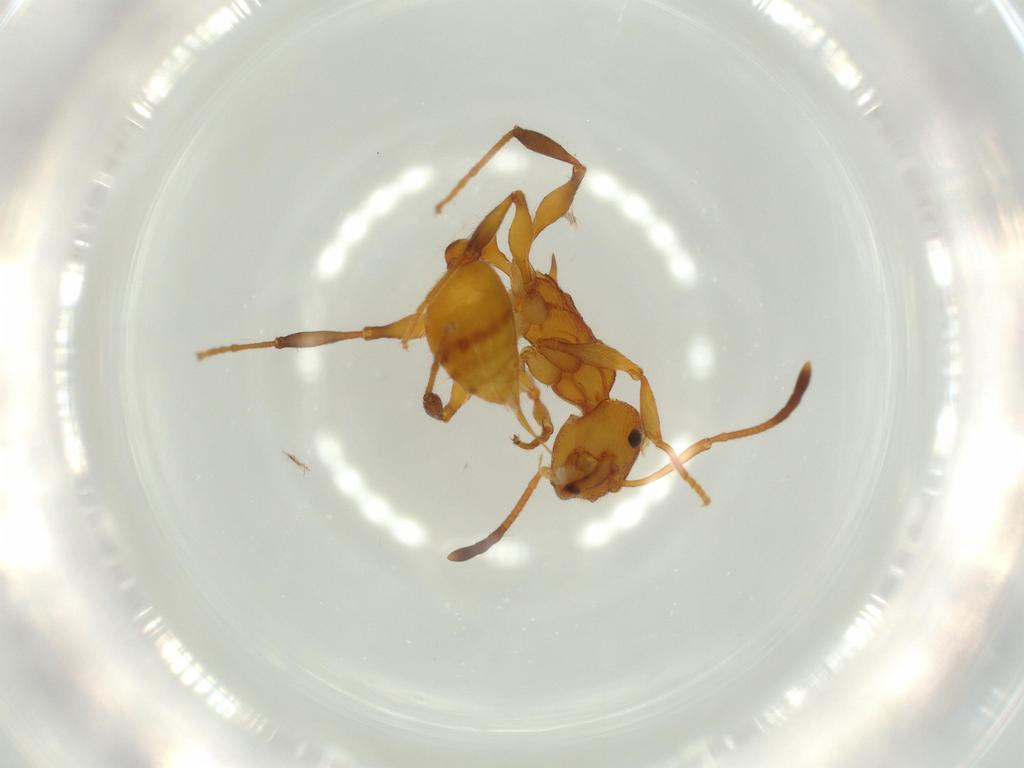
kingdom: Animalia
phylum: Arthropoda
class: Insecta
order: Hymenoptera
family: Formicidae
